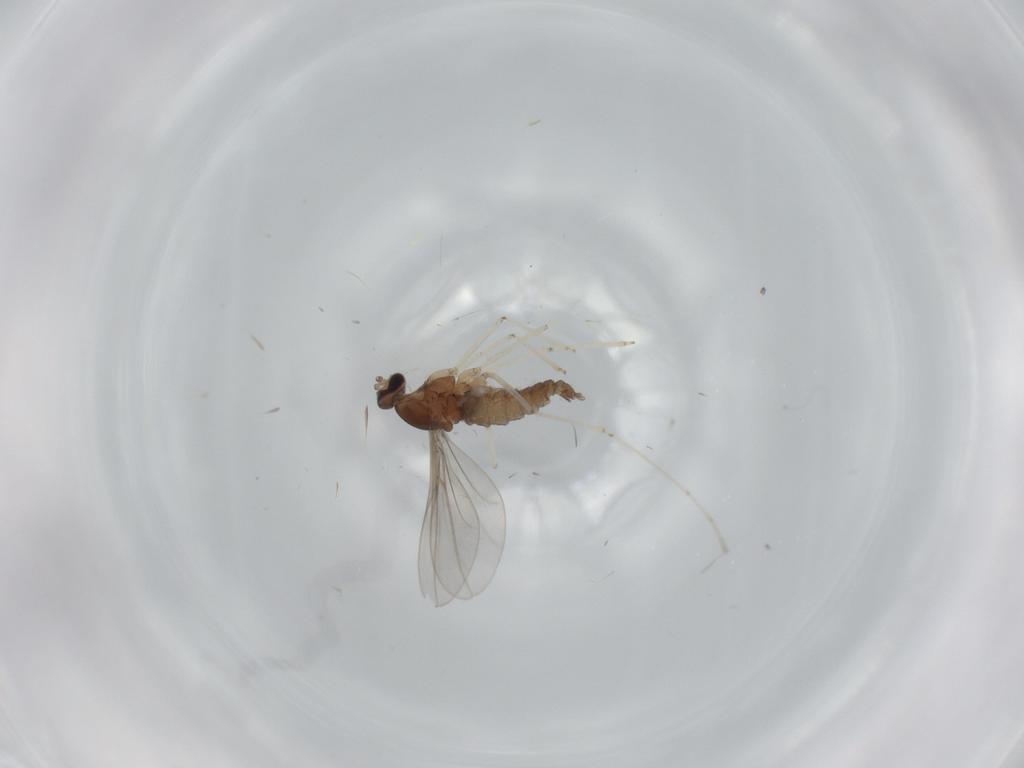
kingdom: Animalia
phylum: Arthropoda
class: Insecta
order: Diptera
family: Cecidomyiidae
